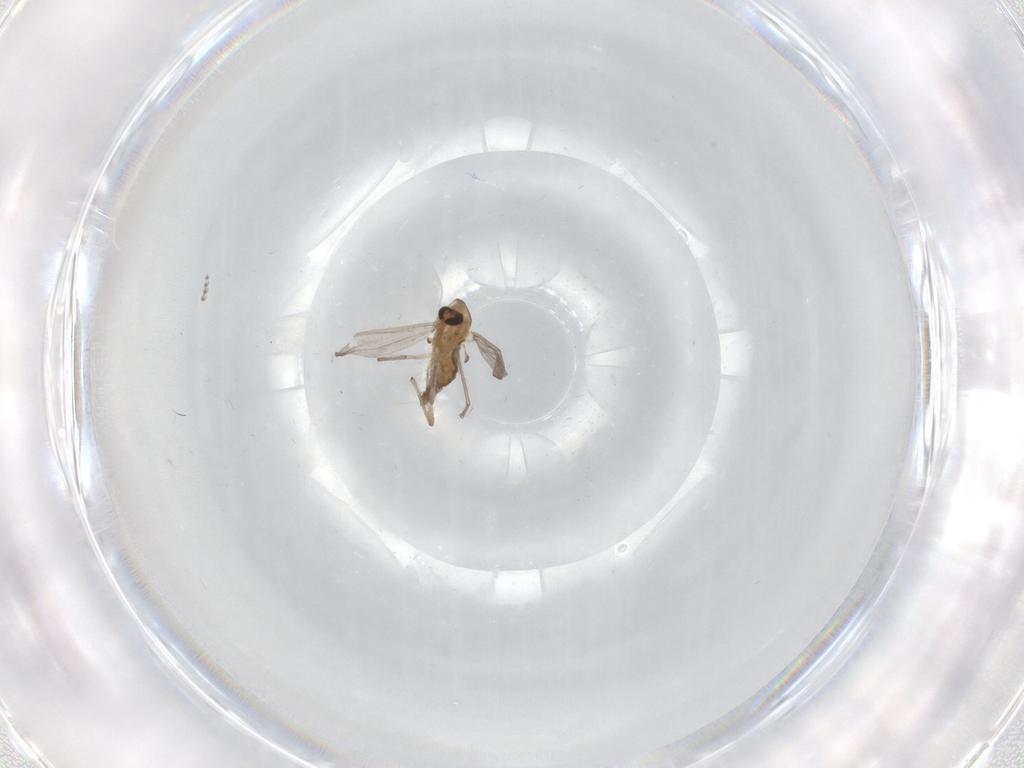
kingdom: Animalia
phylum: Arthropoda
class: Insecta
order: Diptera
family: Chironomidae
